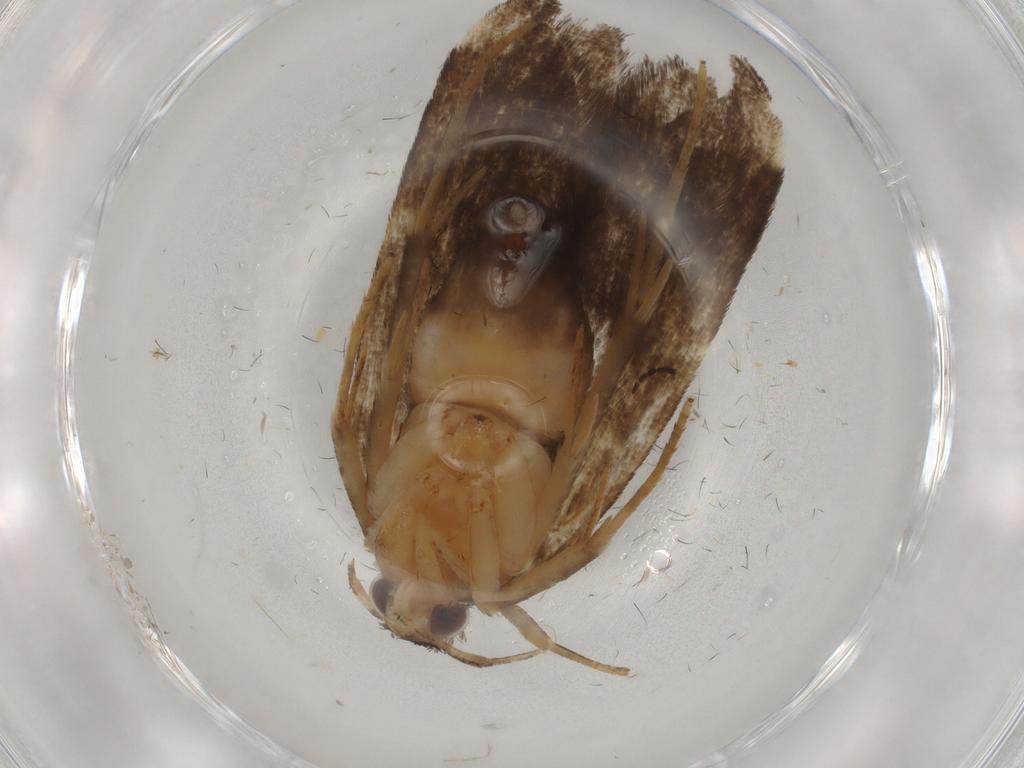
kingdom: Animalia
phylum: Arthropoda
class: Insecta
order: Lepidoptera
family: Gelechiidae
